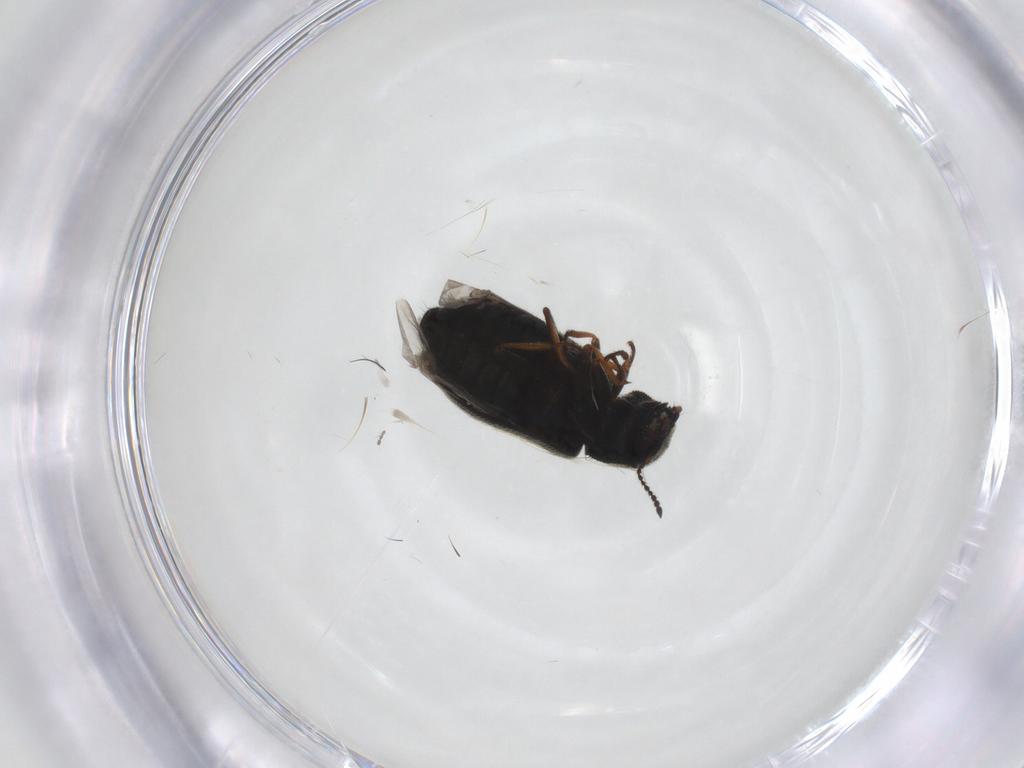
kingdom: Animalia
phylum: Arthropoda
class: Insecta
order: Coleoptera
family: Melyridae
